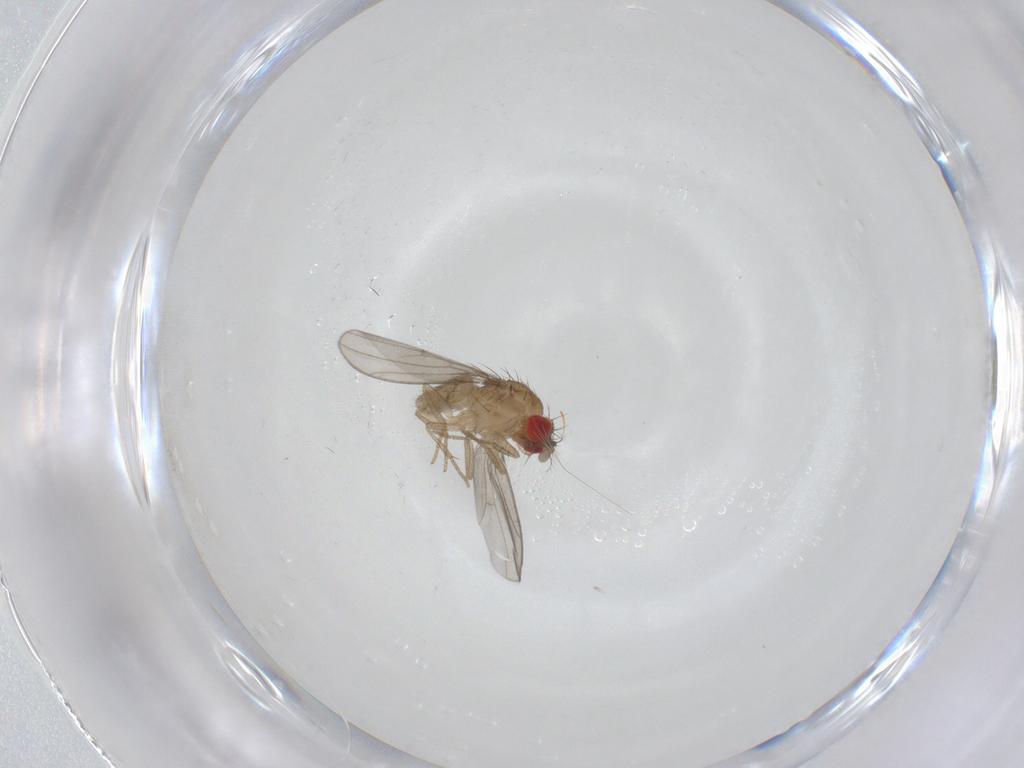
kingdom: Animalia
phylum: Arthropoda
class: Insecta
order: Diptera
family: Drosophilidae
